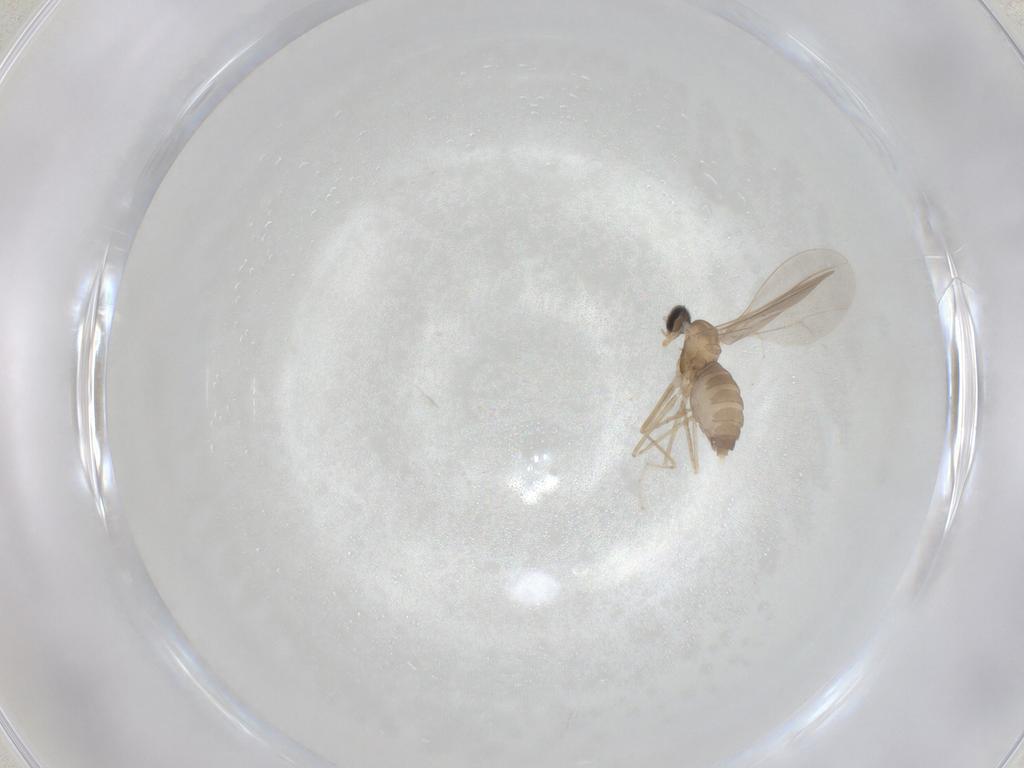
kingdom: Animalia
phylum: Arthropoda
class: Insecta
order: Diptera
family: Cecidomyiidae
